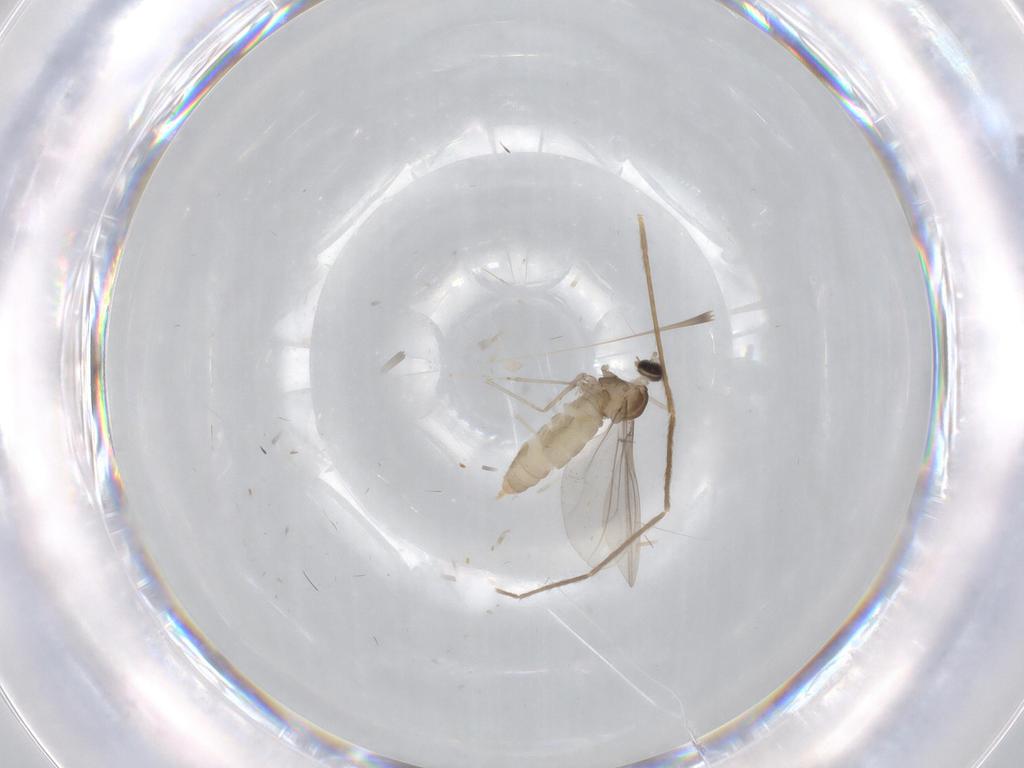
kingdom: Animalia
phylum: Arthropoda
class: Insecta
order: Diptera
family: Cecidomyiidae
